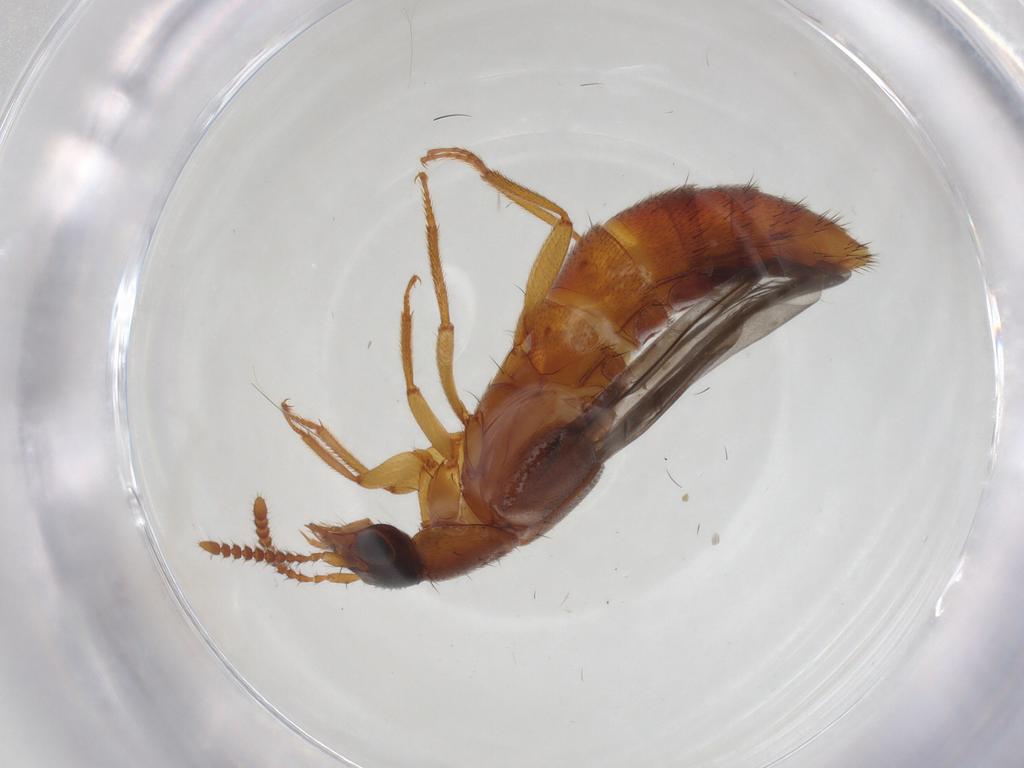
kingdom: Animalia
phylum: Arthropoda
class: Insecta
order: Coleoptera
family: Staphylinidae
